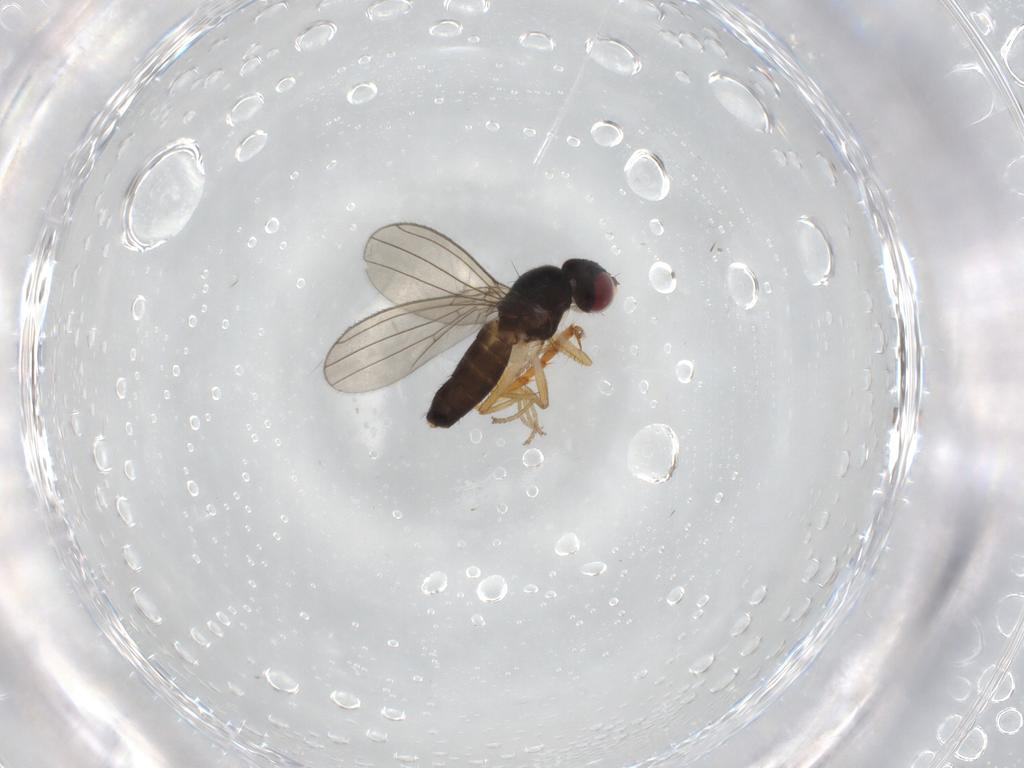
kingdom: Animalia
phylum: Arthropoda
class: Insecta
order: Diptera
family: Anthomyzidae
